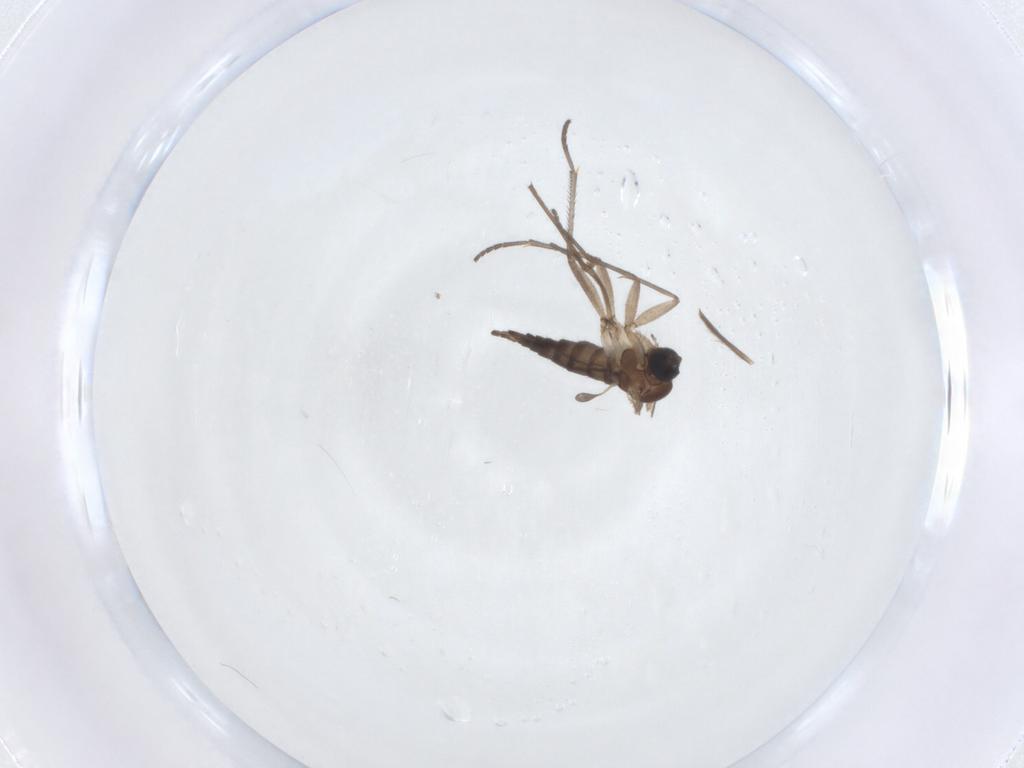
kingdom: Animalia
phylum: Arthropoda
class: Insecta
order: Diptera
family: Chironomidae
